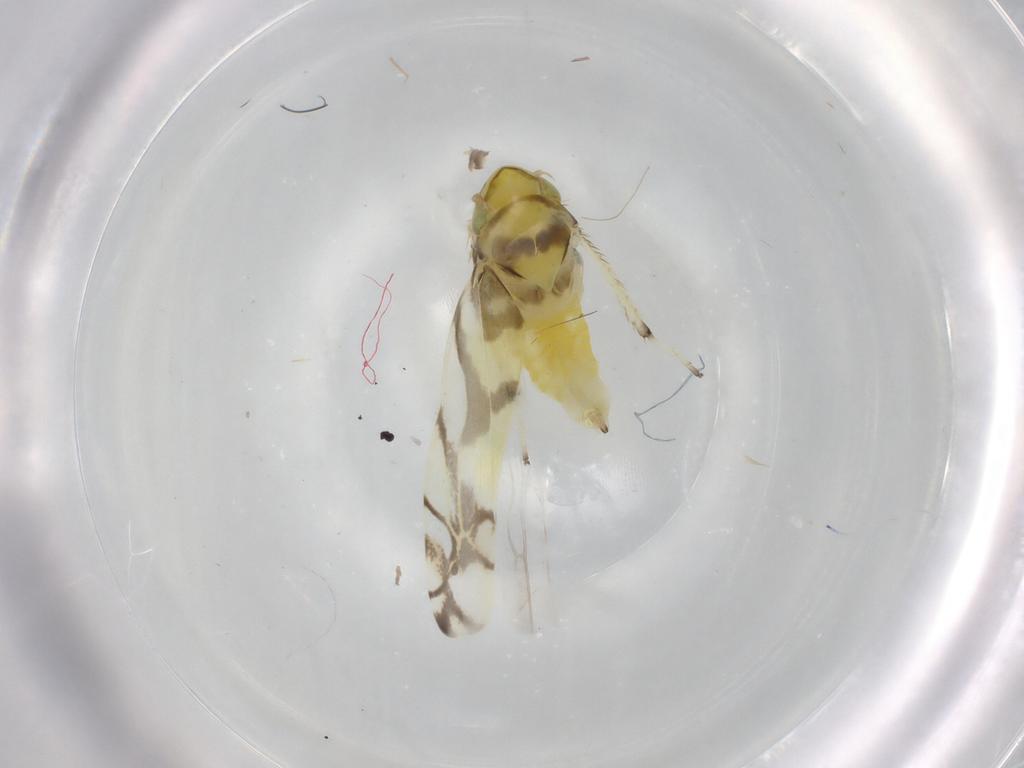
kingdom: Animalia
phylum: Arthropoda
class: Insecta
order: Hemiptera
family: Cicadellidae
